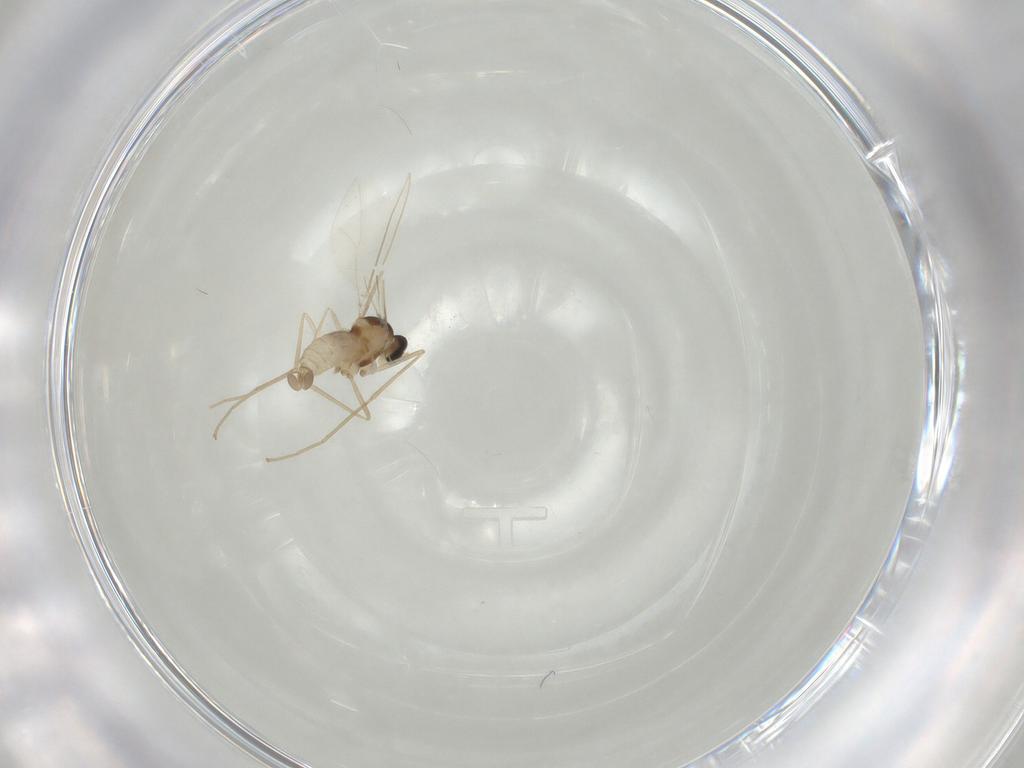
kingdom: Animalia
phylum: Arthropoda
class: Insecta
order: Diptera
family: Cecidomyiidae
